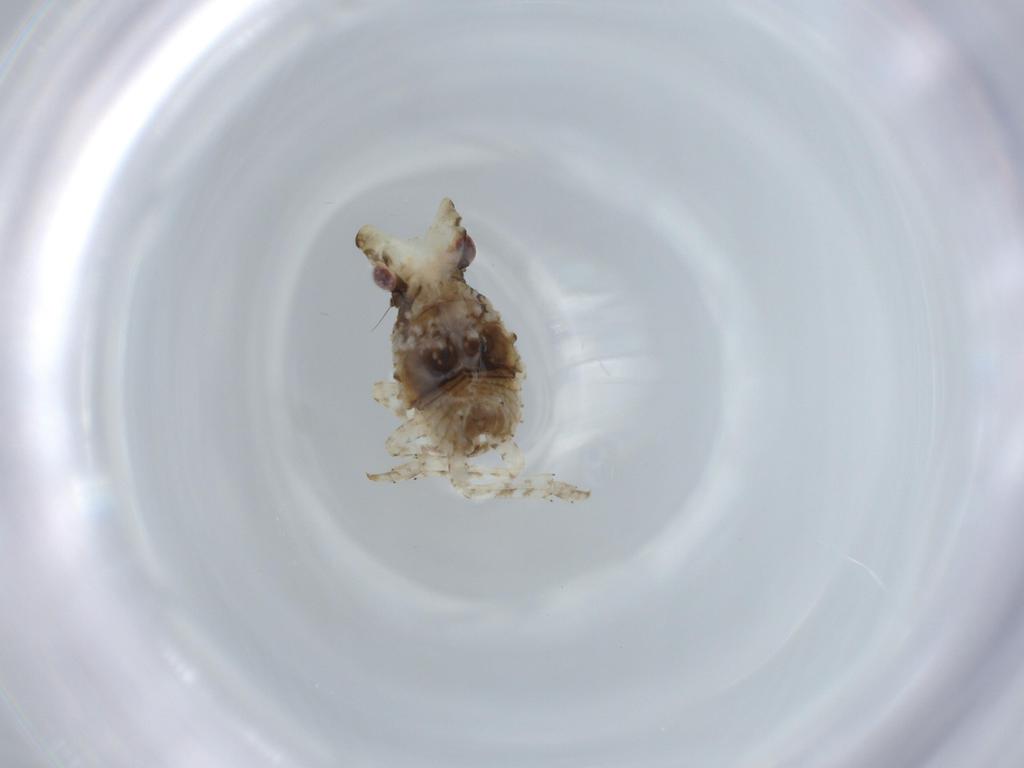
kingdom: Animalia
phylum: Arthropoda
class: Insecta
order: Hemiptera
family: Fulgoridae
